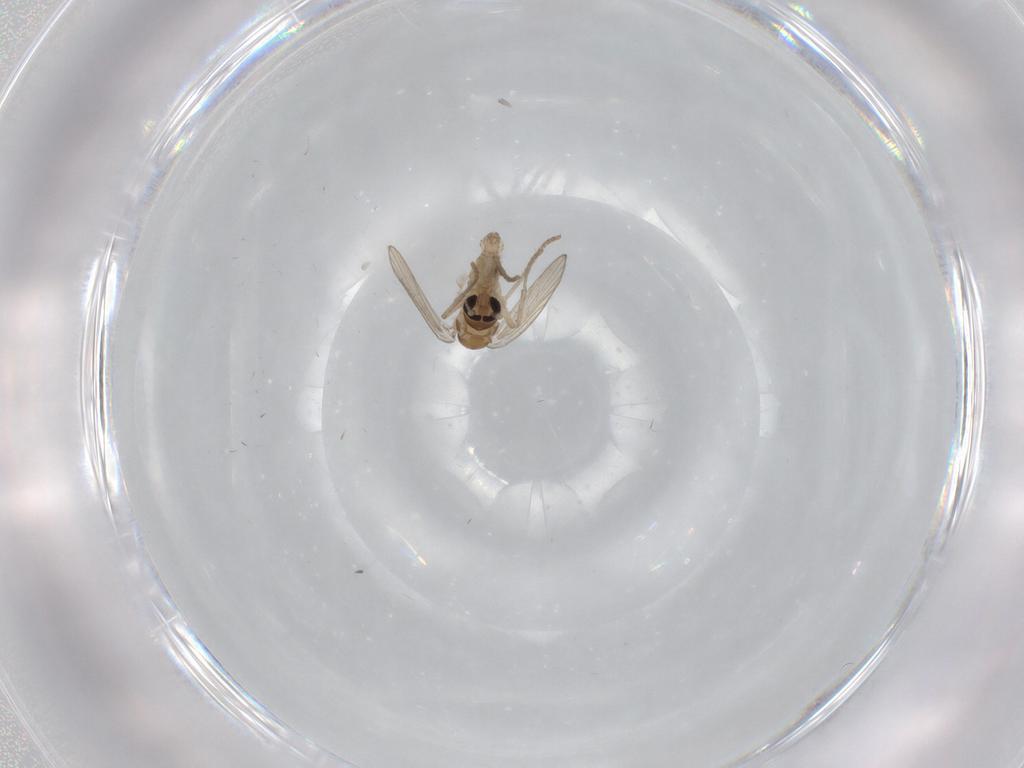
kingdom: Animalia
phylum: Arthropoda
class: Insecta
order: Diptera
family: Psychodidae
